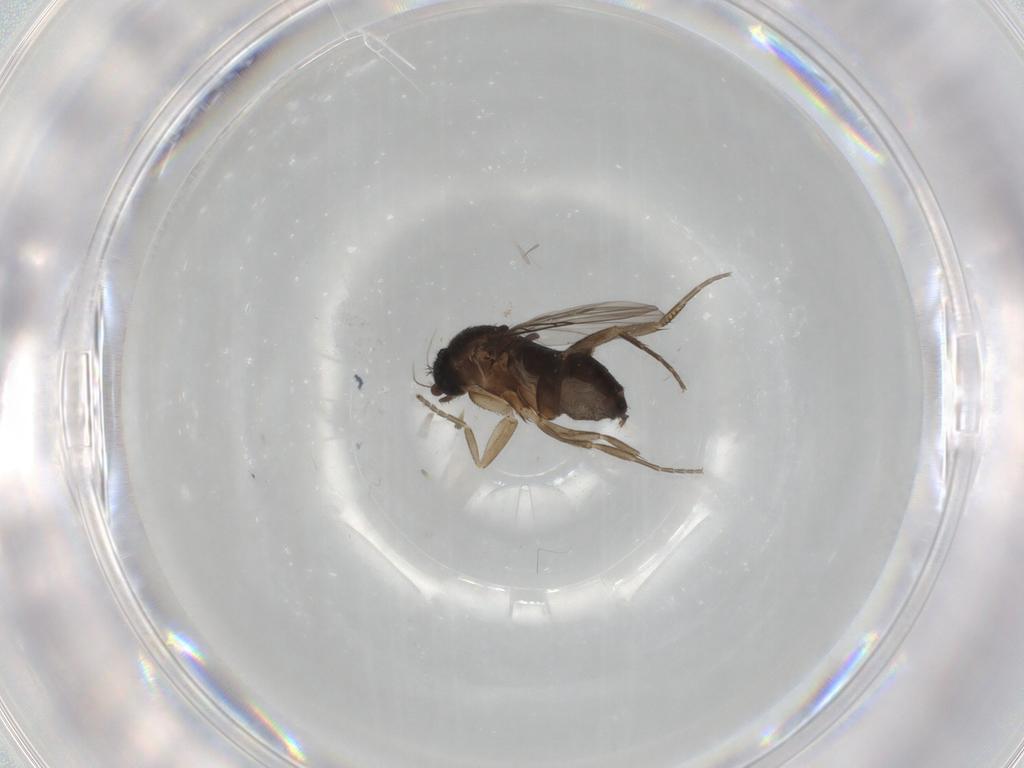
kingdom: Animalia
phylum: Arthropoda
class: Insecta
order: Diptera
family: Phoridae
